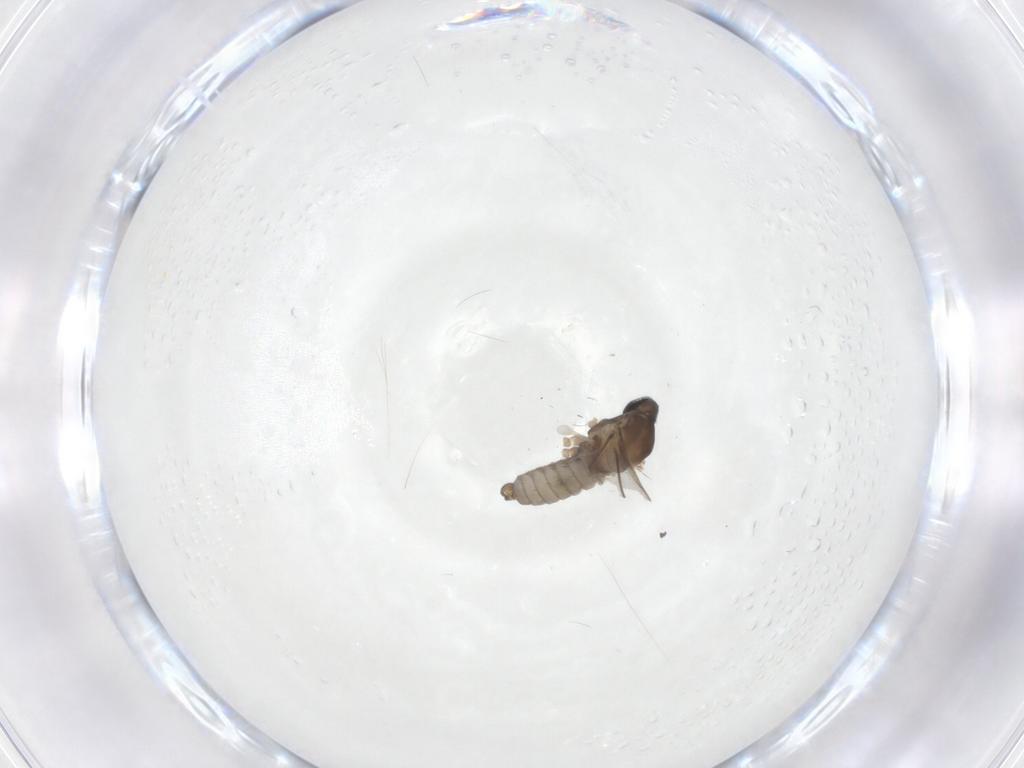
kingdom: Animalia
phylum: Arthropoda
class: Insecta
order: Diptera
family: Cecidomyiidae
